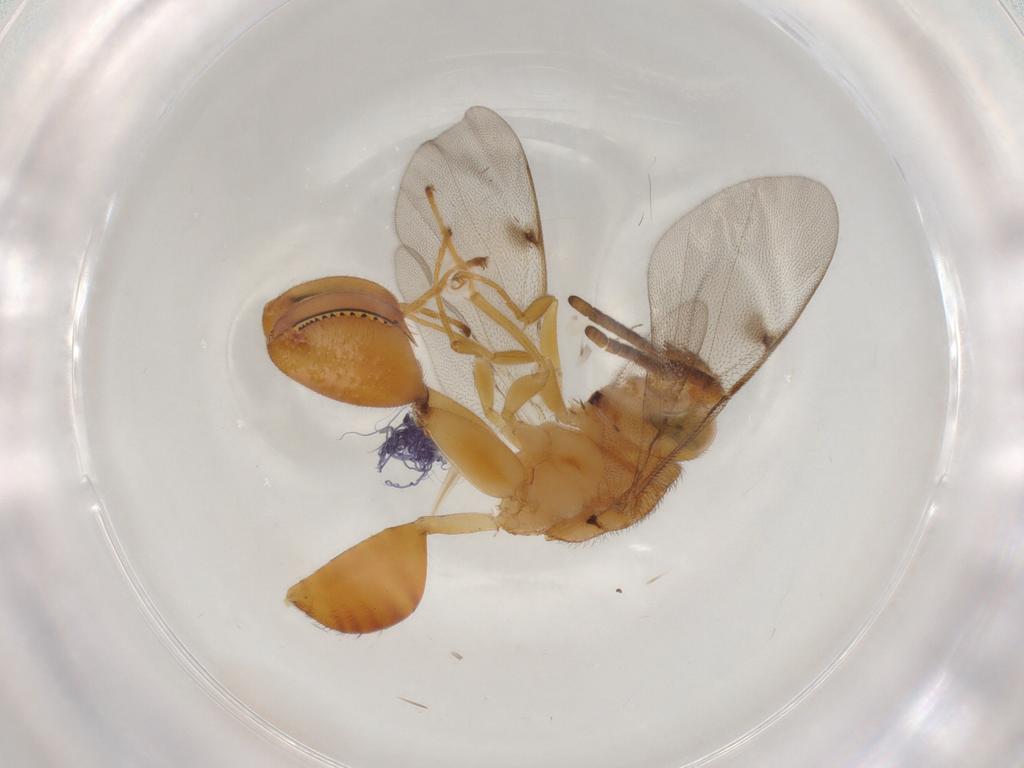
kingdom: Animalia
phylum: Arthropoda
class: Insecta
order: Hymenoptera
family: Chalcididae
